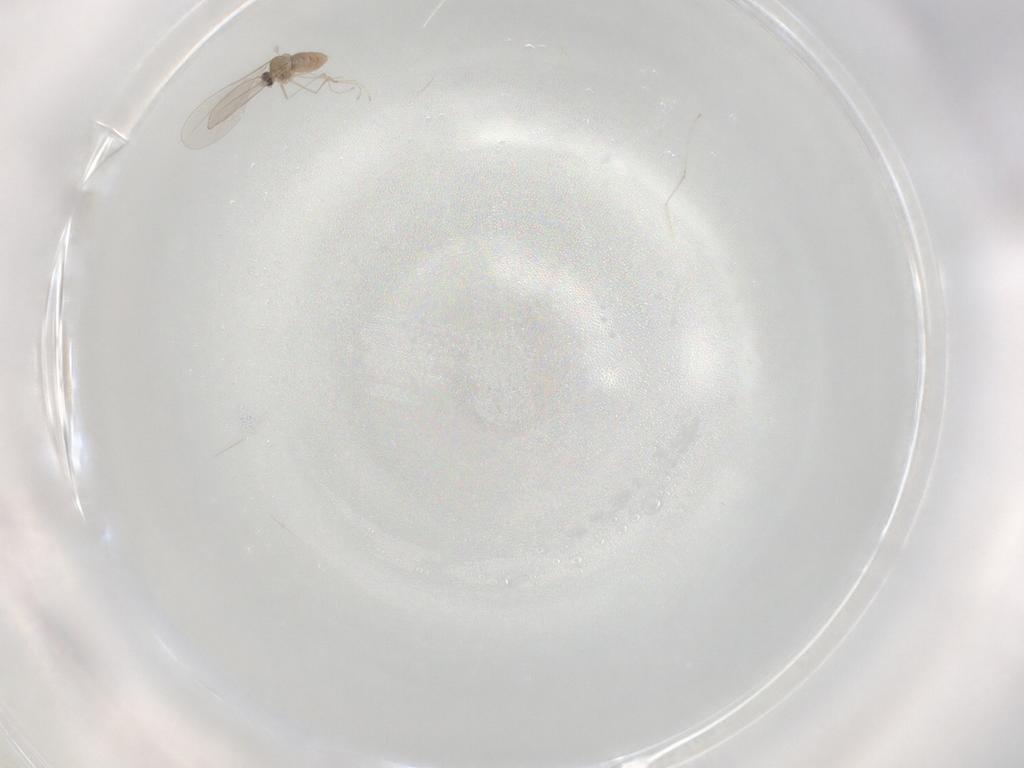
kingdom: Animalia
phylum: Arthropoda
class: Insecta
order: Diptera
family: Cecidomyiidae
